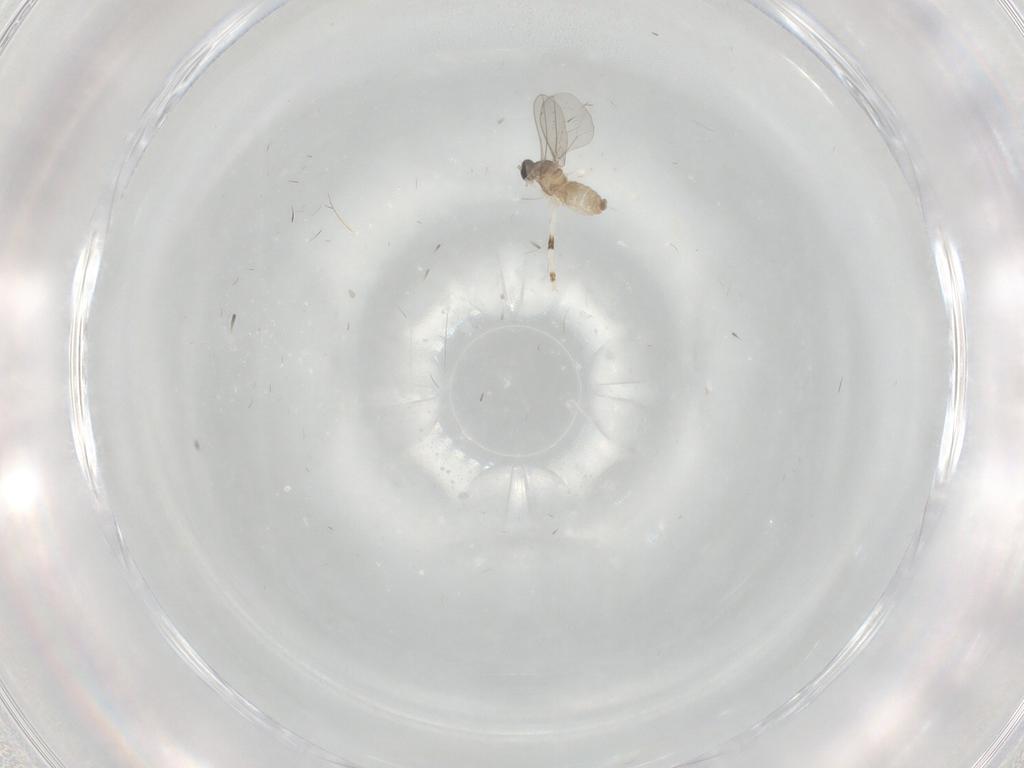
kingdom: Animalia
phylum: Arthropoda
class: Insecta
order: Diptera
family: Cecidomyiidae
